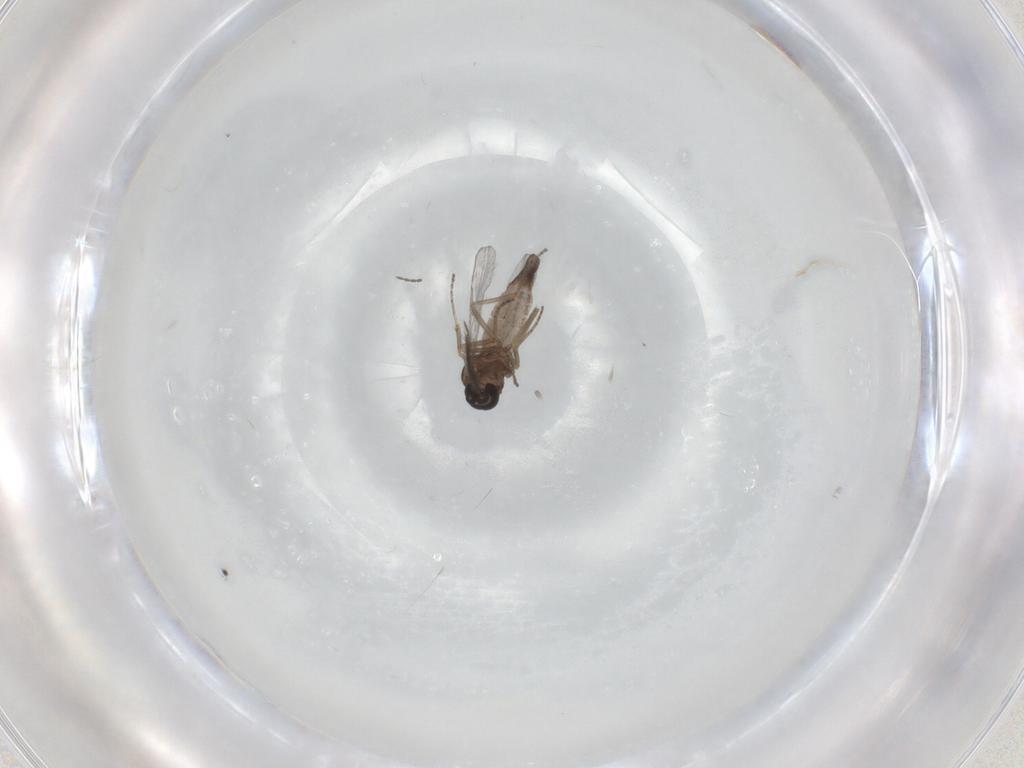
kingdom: Animalia
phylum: Arthropoda
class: Insecta
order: Diptera
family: Ceratopogonidae
